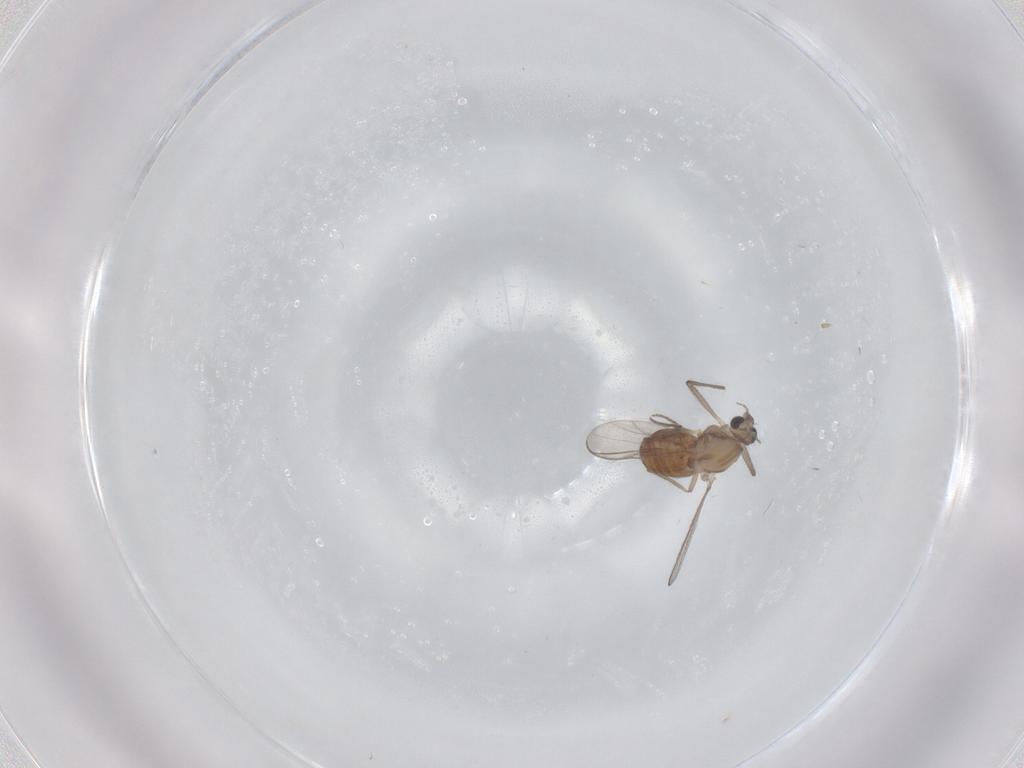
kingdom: Animalia
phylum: Arthropoda
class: Insecta
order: Diptera
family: Chironomidae
